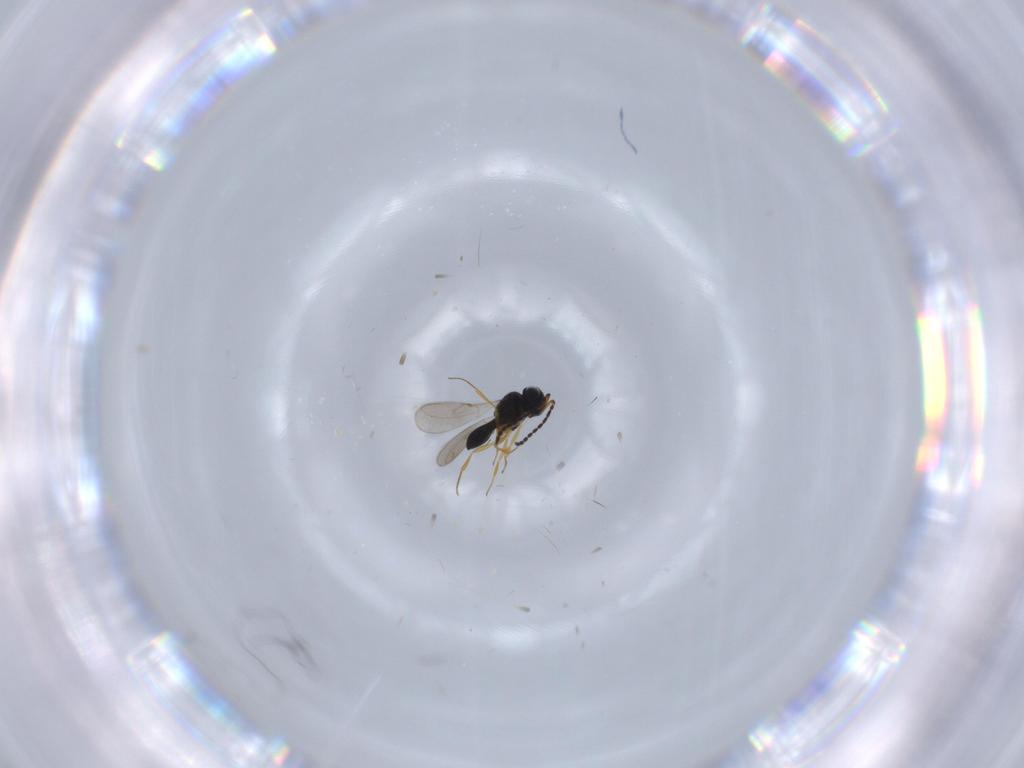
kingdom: Animalia
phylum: Arthropoda
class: Insecta
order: Hymenoptera
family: Scelionidae
